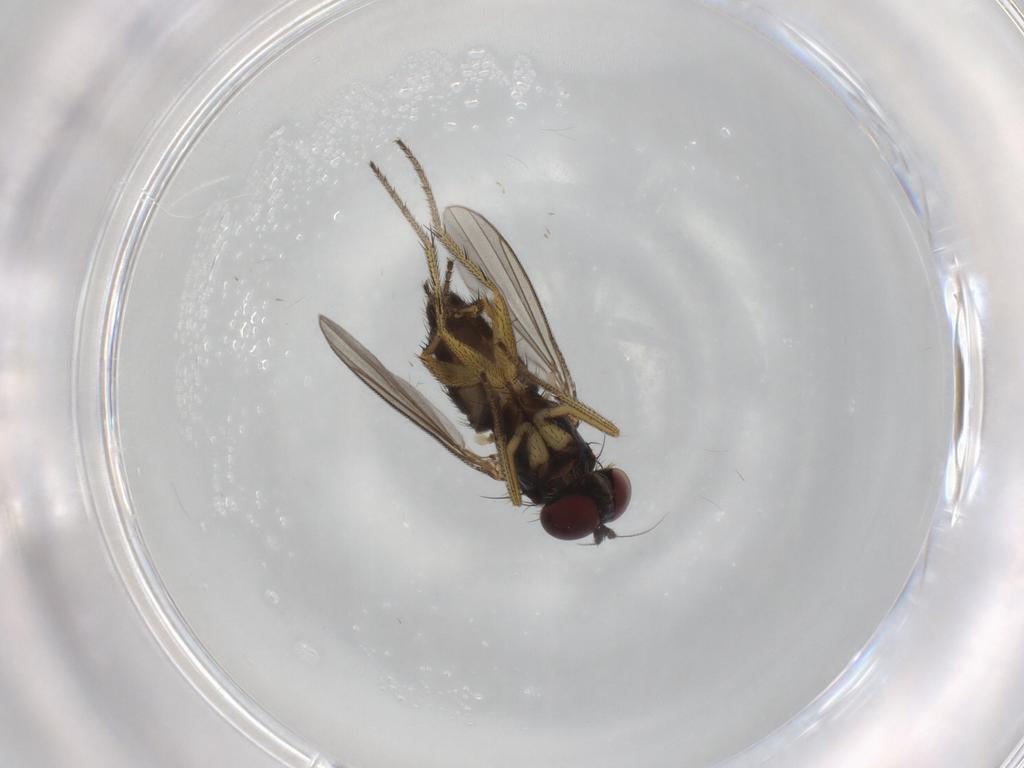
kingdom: Animalia
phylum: Arthropoda
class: Insecta
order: Diptera
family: Dolichopodidae
